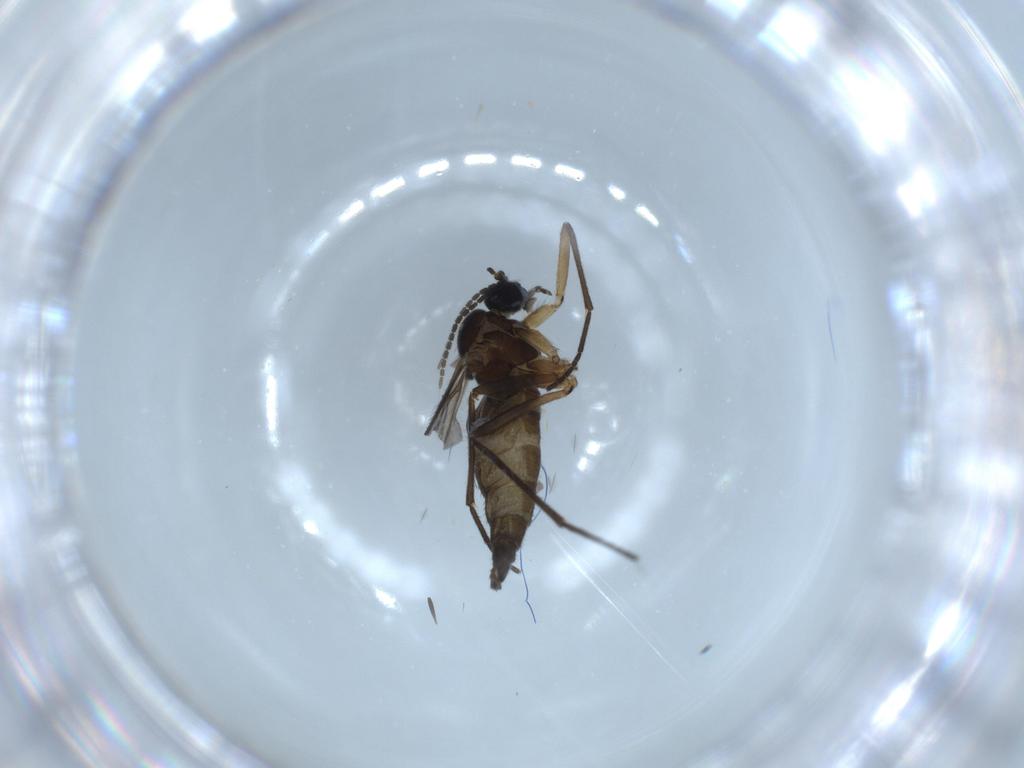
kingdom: Animalia
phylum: Arthropoda
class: Insecta
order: Diptera
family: Sciaridae
